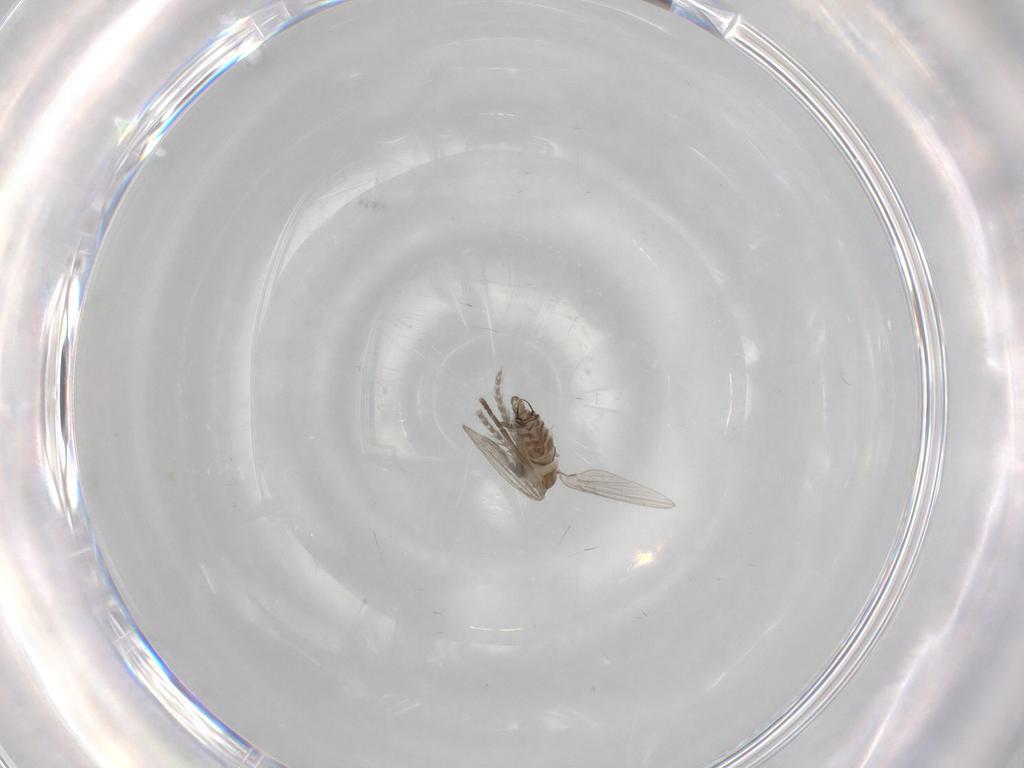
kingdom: Animalia
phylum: Arthropoda
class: Insecta
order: Diptera
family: Psychodidae
